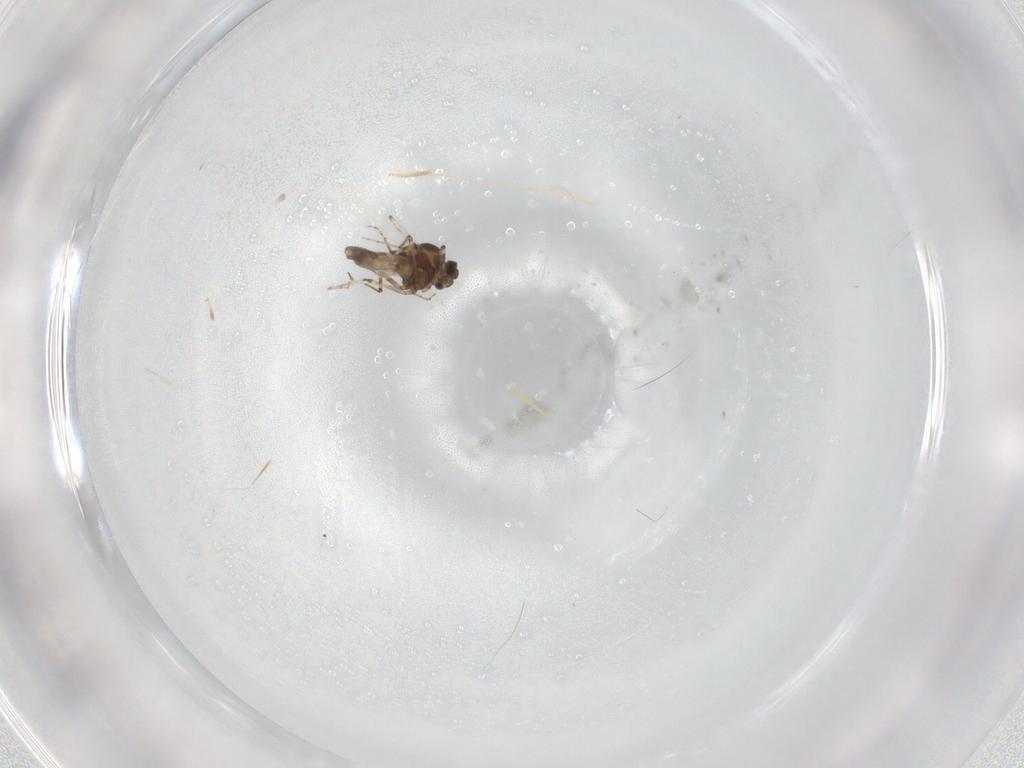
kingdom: Animalia
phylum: Arthropoda
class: Insecta
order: Diptera
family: Ceratopogonidae
